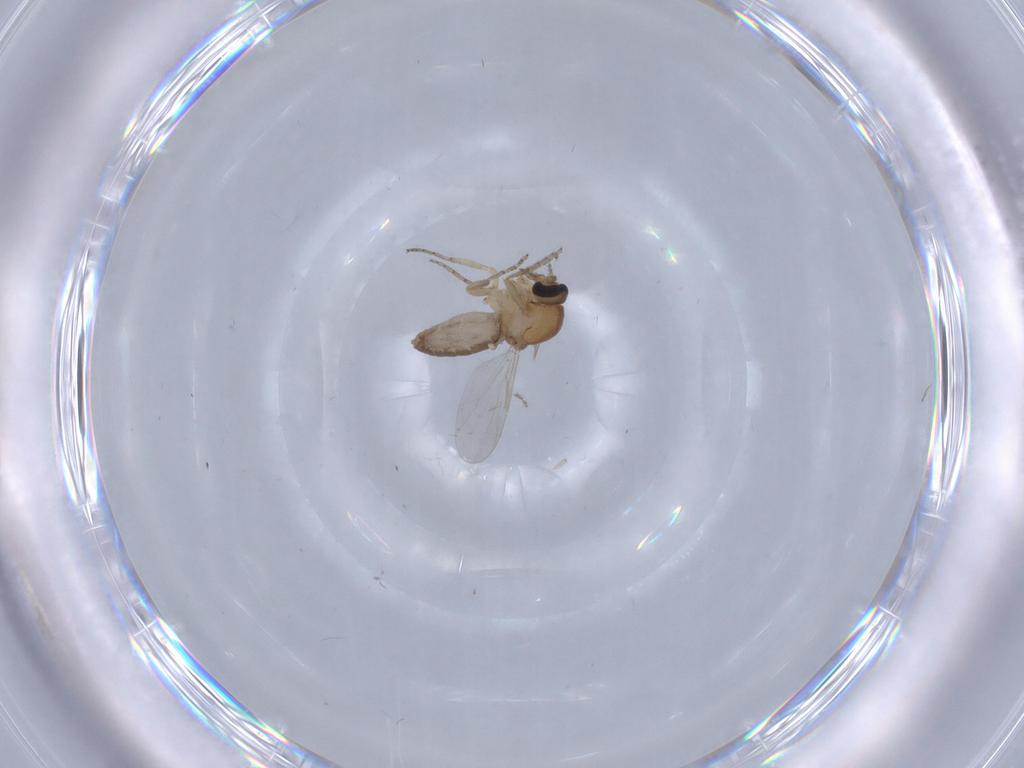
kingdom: Animalia
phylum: Arthropoda
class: Insecta
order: Diptera
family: Ceratopogonidae
